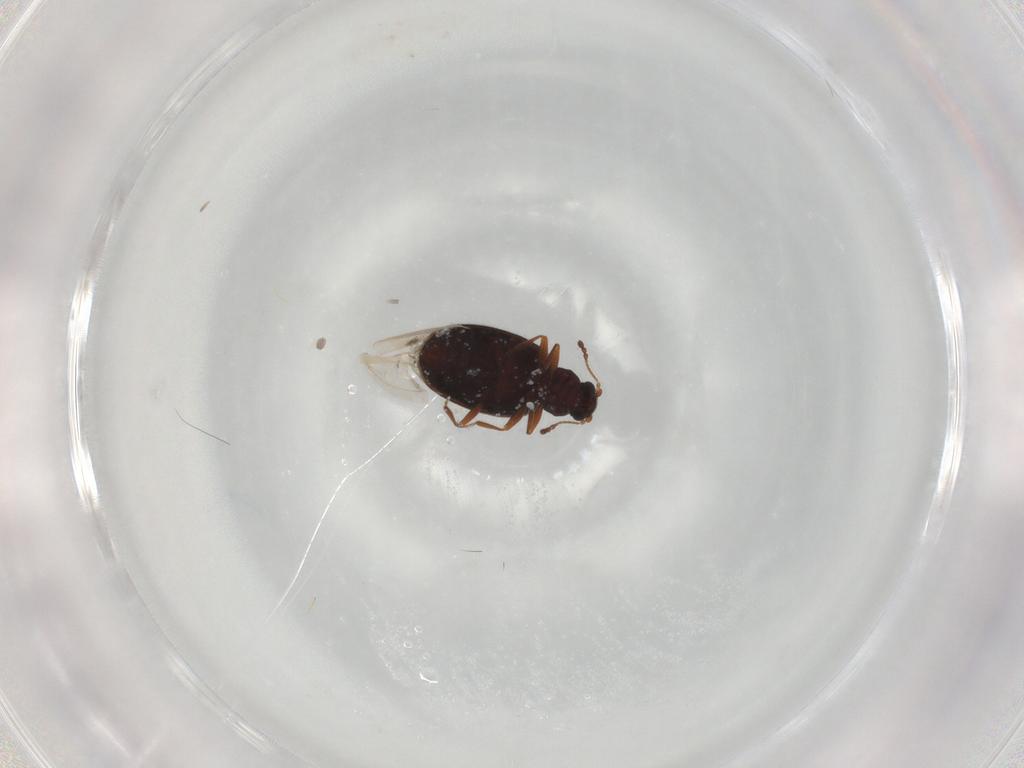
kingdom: Animalia
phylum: Arthropoda
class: Insecta
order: Coleoptera
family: Latridiidae
